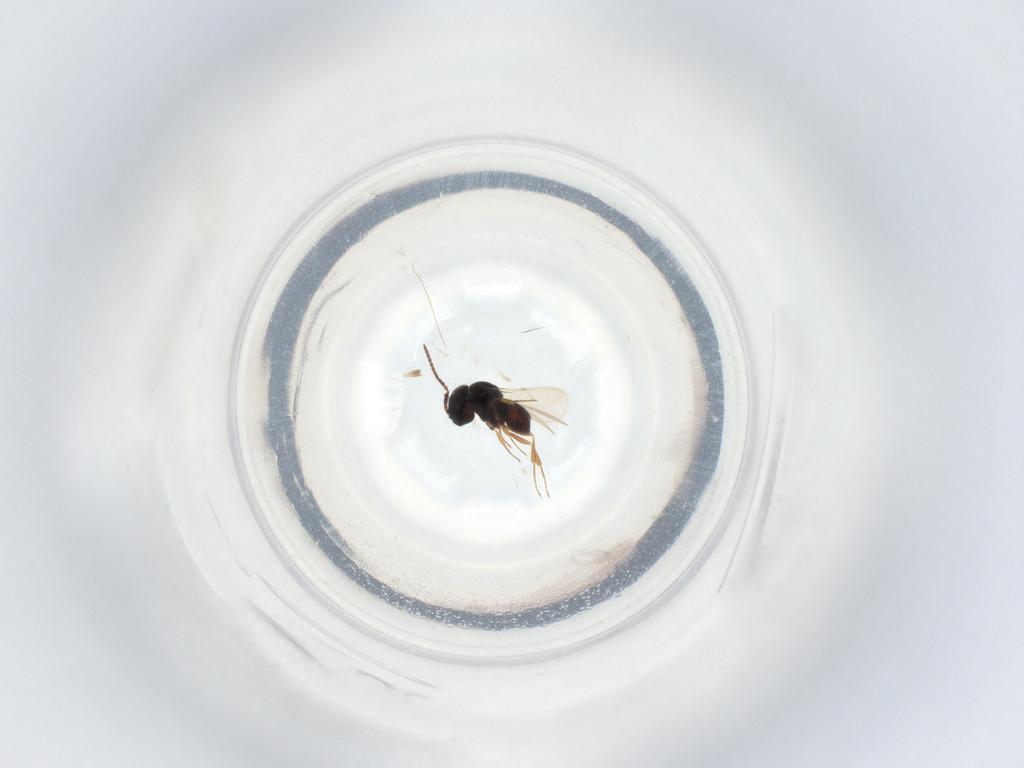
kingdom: Animalia
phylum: Arthropoda
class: Insecta
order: Hymenoptera
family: Scelionidae
